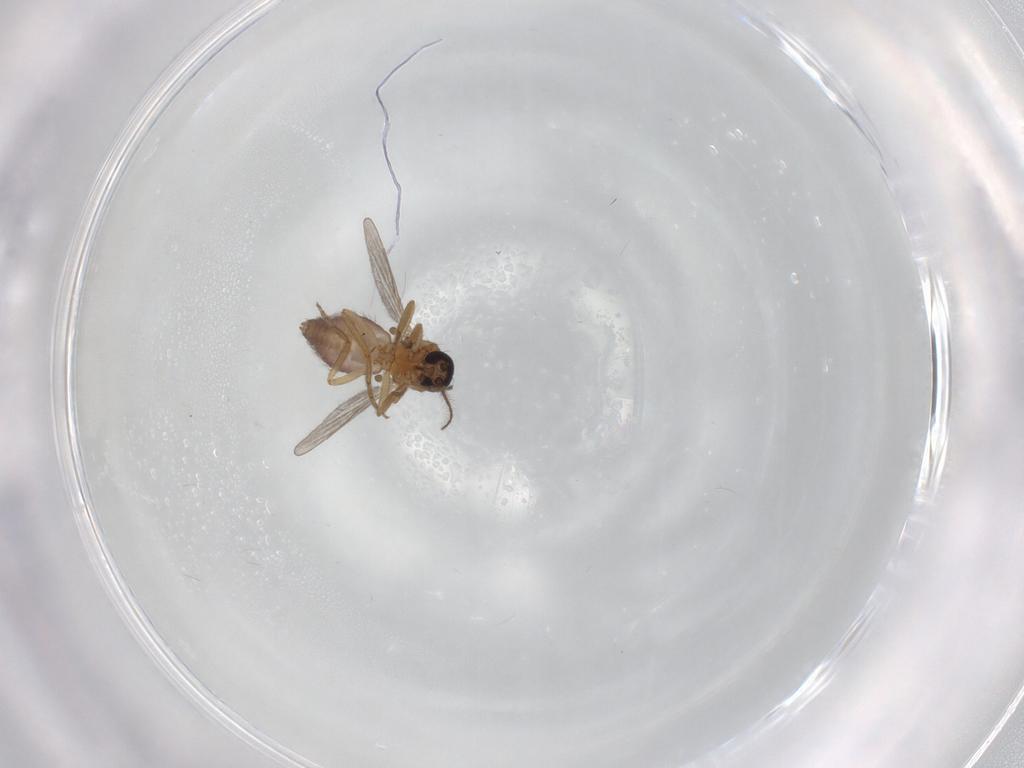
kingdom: Animalia
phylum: Arthropoda
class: Insecta
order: Diptera
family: Ceratopogonidae
